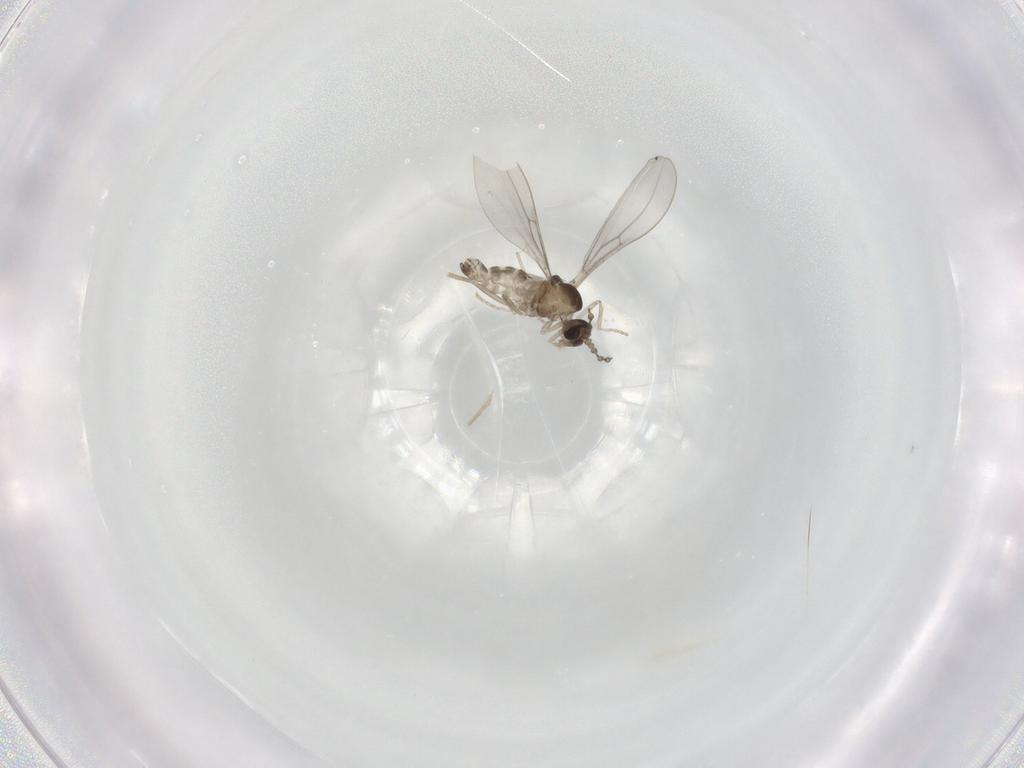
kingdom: Animalia
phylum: Arthropoda
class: Insecta
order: Diptera
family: Cecidomyiidae
